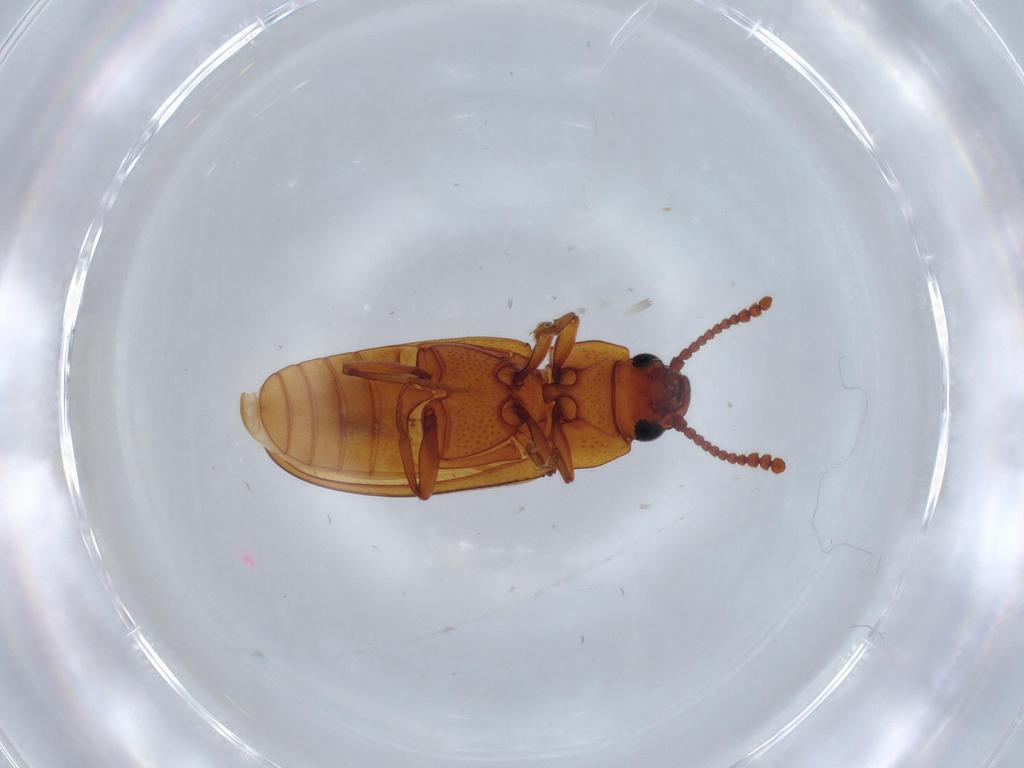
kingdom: Animalia
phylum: Arthropoda
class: Insecta
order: Coleoptera
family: Erotylidae
